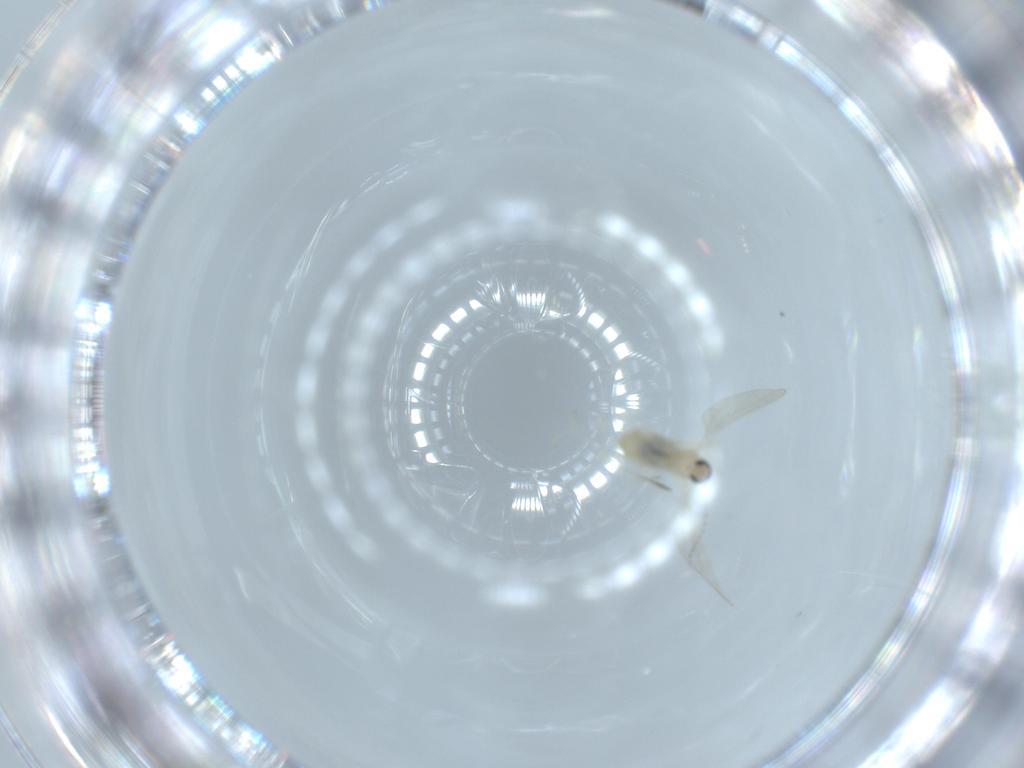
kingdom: Animalia
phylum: Arthropoda
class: Insecta
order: Diptera
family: Cecidomyiidae
